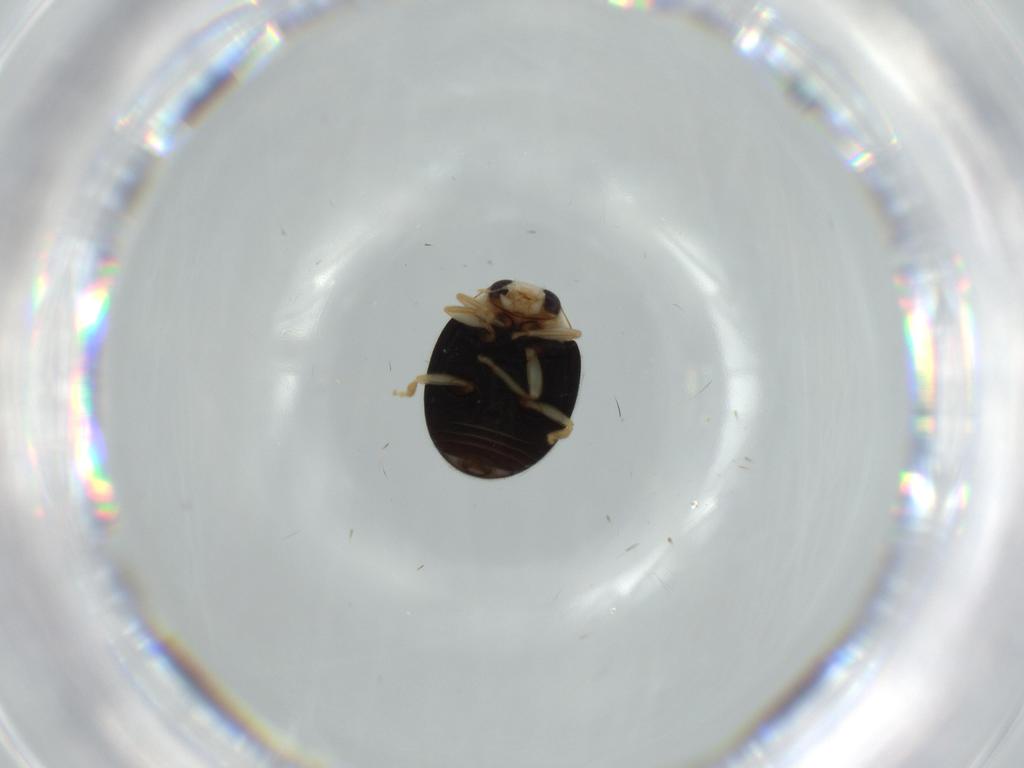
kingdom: Animalia
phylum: Arthropoda
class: Insecta
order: Coleoptera
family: Coccinellidae
